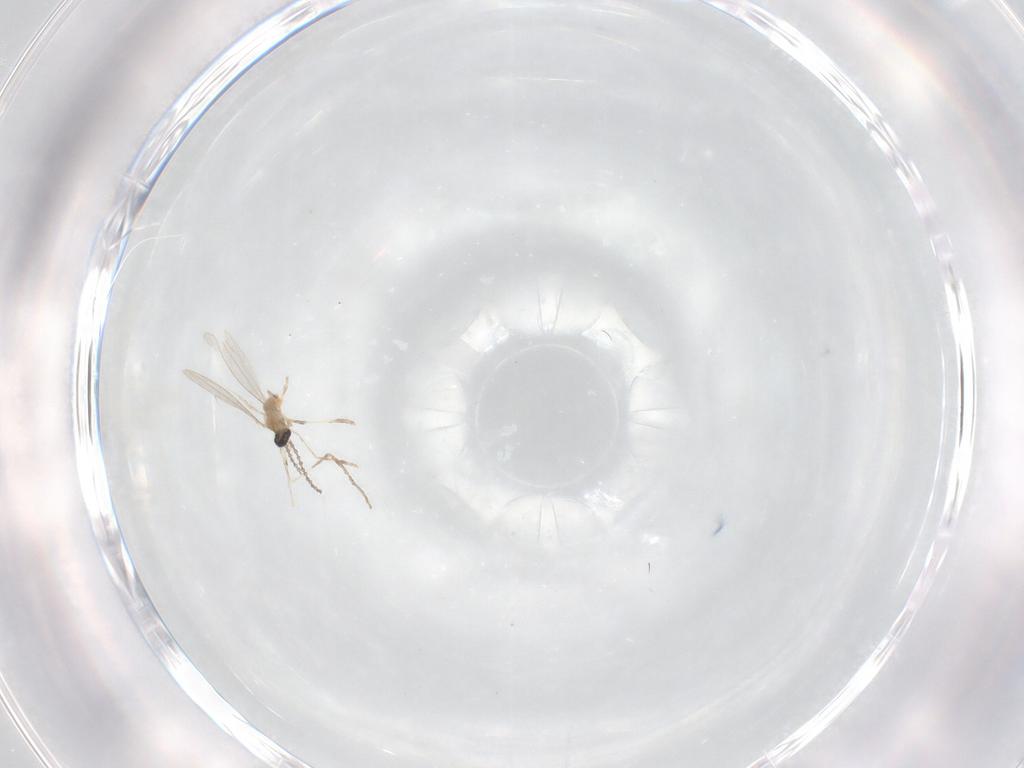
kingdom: Animalia
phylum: Arthropoda
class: Insecta
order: Diptera
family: Cecidomyiidae
